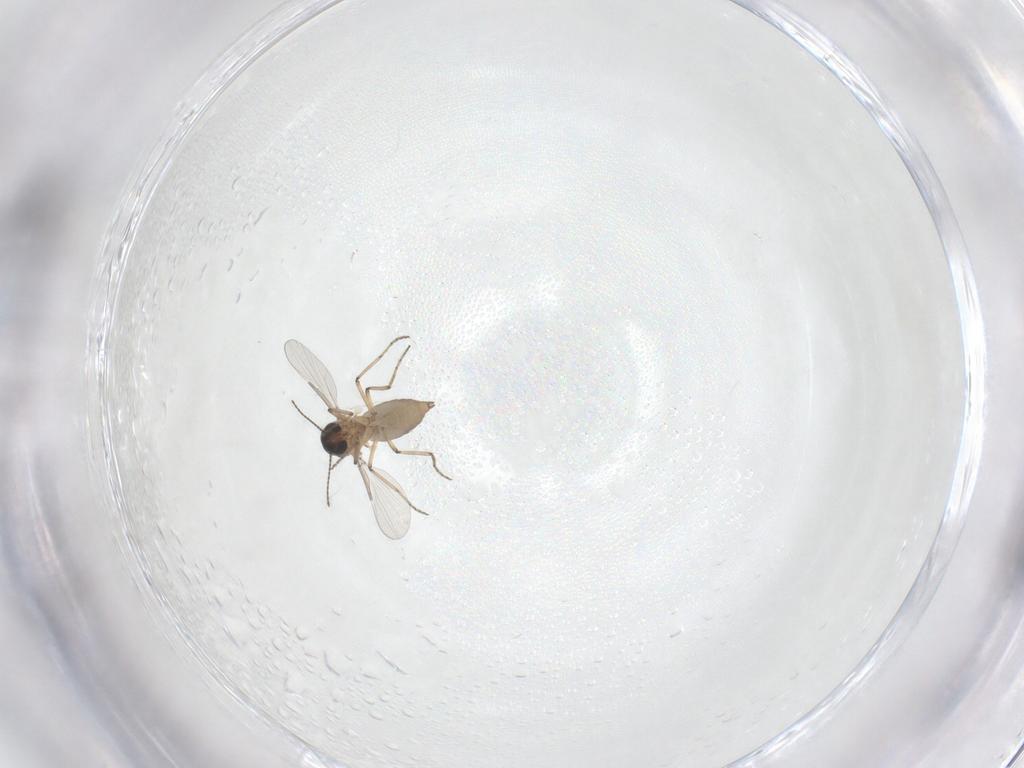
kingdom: Animalia
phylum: Arthropoda
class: Insecta
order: Diptera
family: Ceratopogonidae
